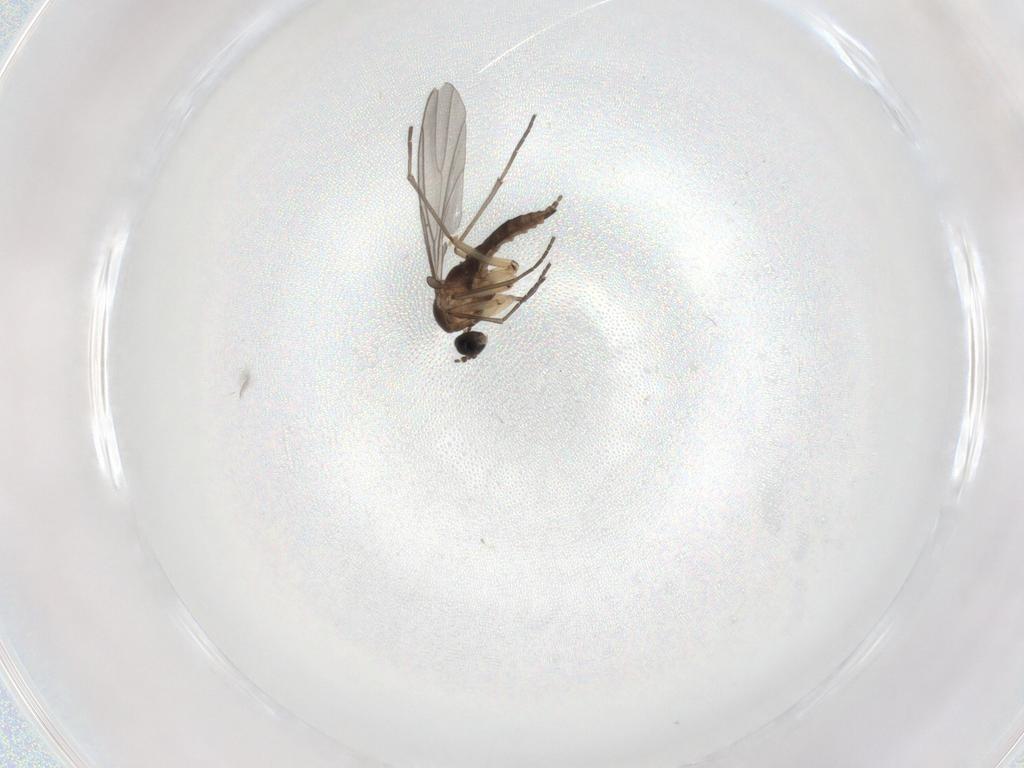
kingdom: Animalia
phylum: Arthropoda
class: Insecta
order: Diptera
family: Sciaridae
